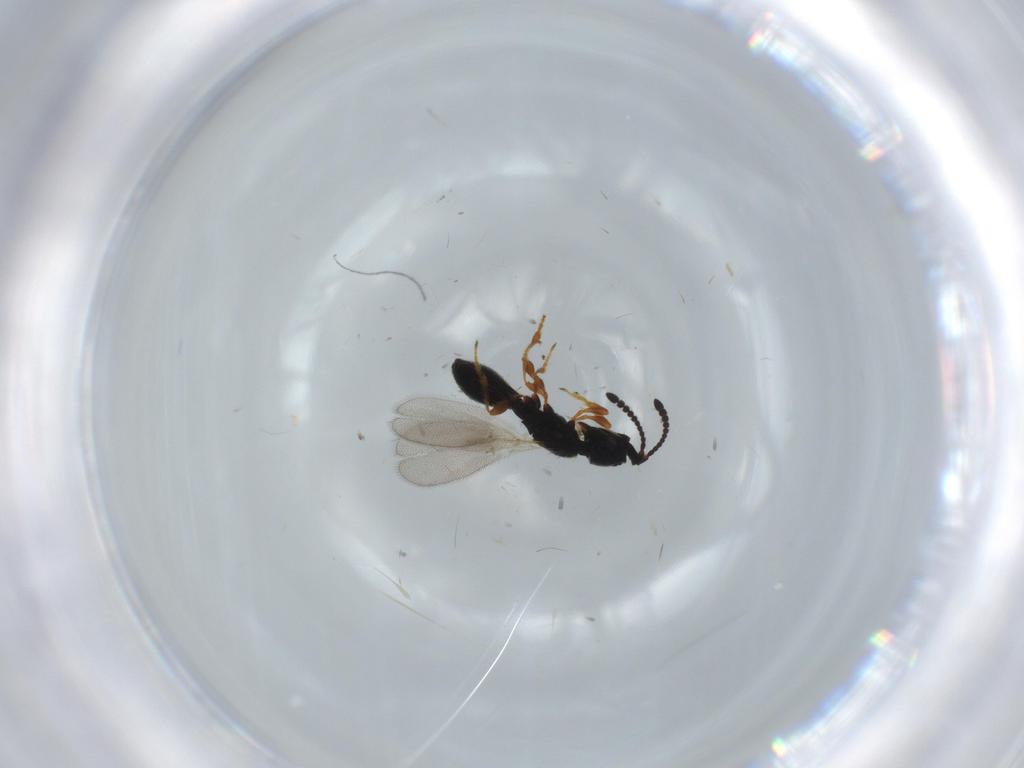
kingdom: Animalia
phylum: Arthropoda
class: Insecta
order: Hymenoptera
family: Diapriidae
